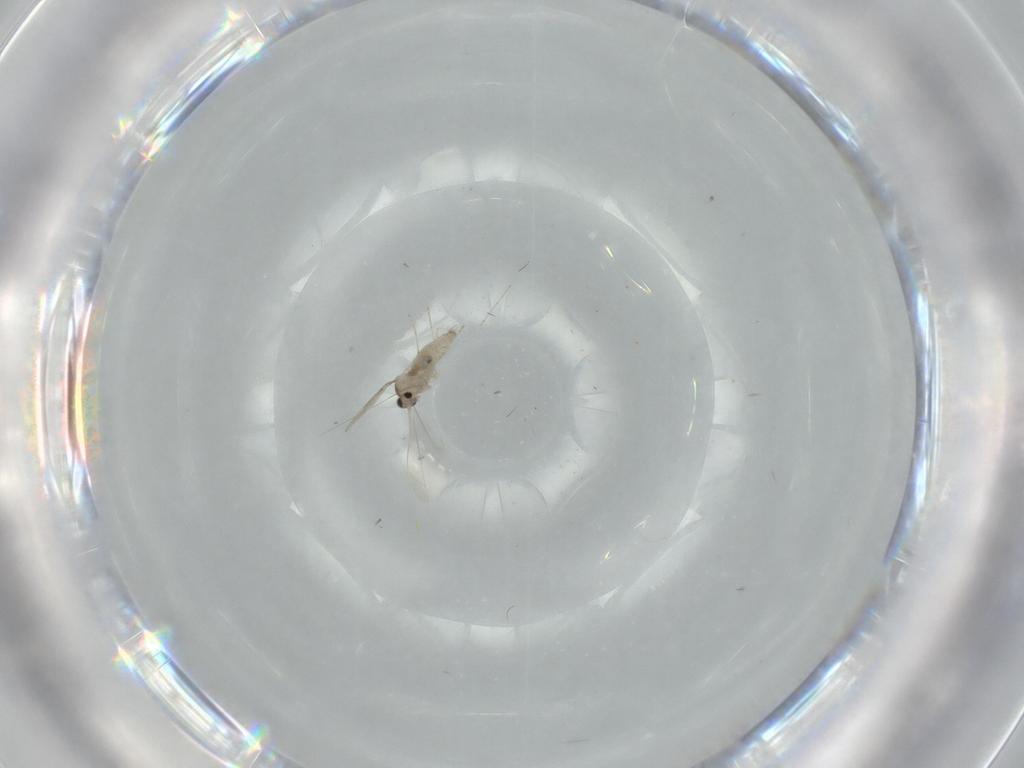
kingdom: Animalia
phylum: Arthropoda
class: Insecta
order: Diptera
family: Cecidomyiidae
